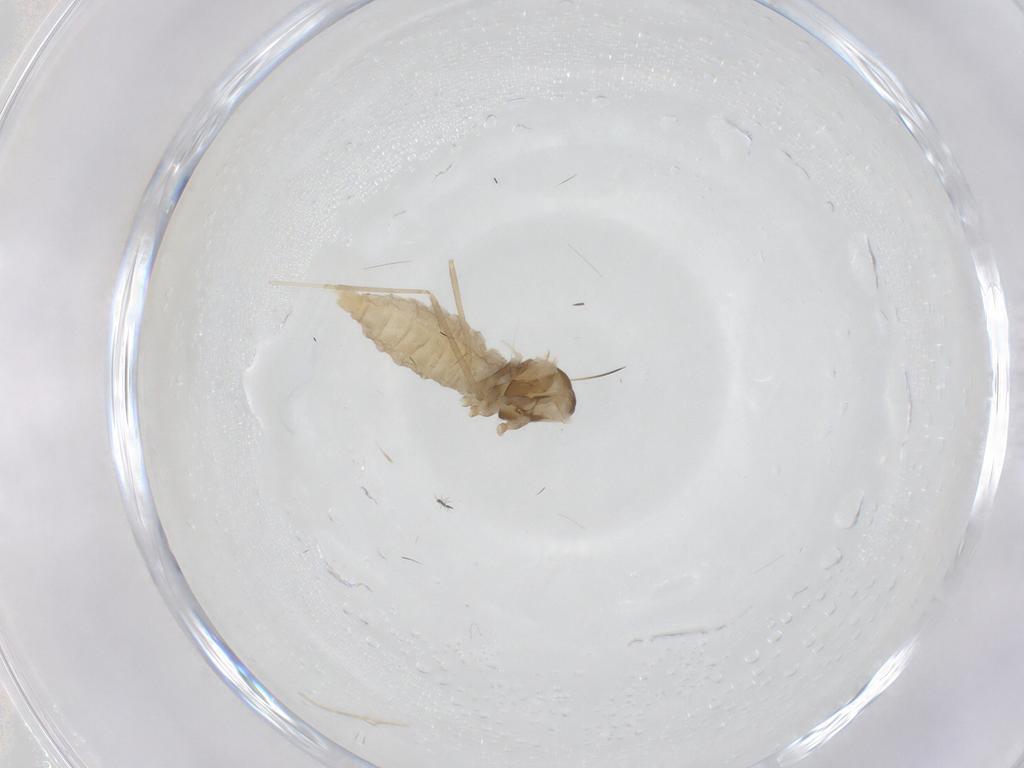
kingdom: Animalia
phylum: Arthropoda
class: Insecta
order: Diptera
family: Cecidomyiidae
